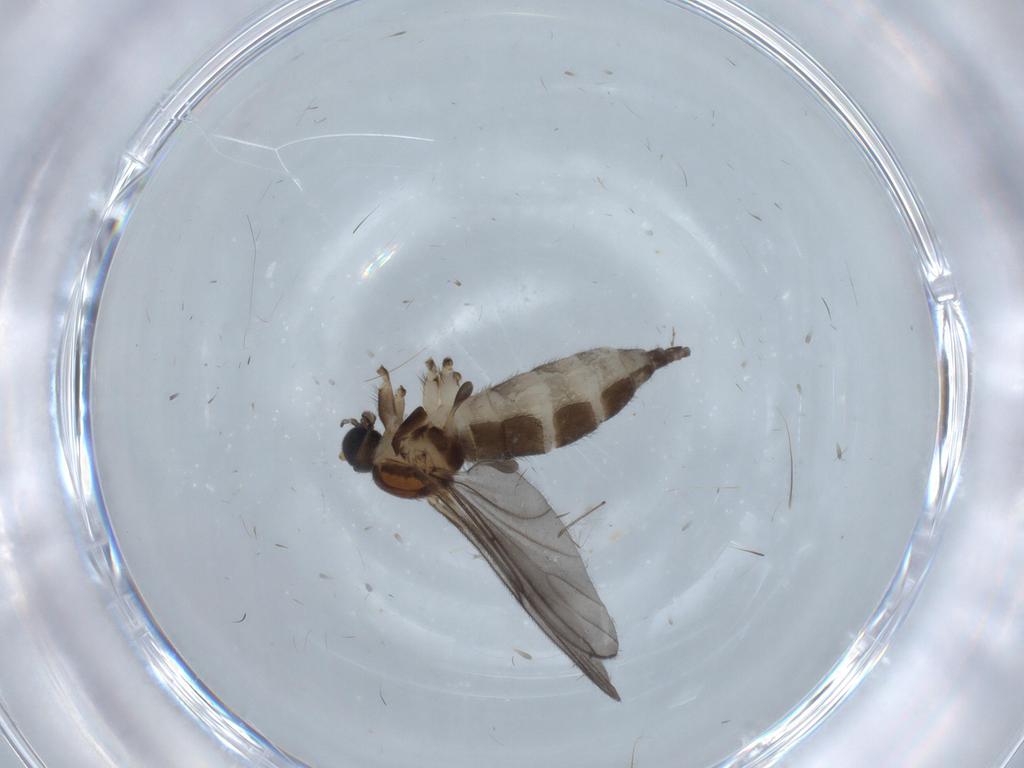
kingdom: Animalia
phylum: Arthropoda
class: Insecta
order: Diptera
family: Sciaridae
